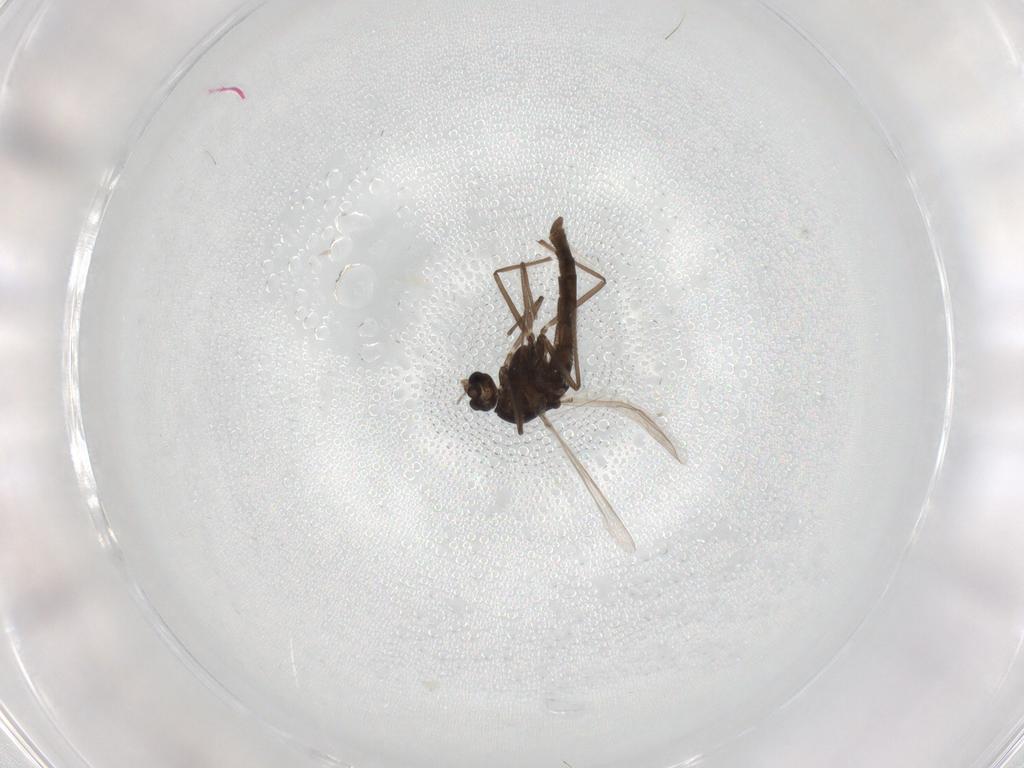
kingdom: Animalia
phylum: Arthropoda
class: Insecta
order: Diptera
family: Chironomidae
